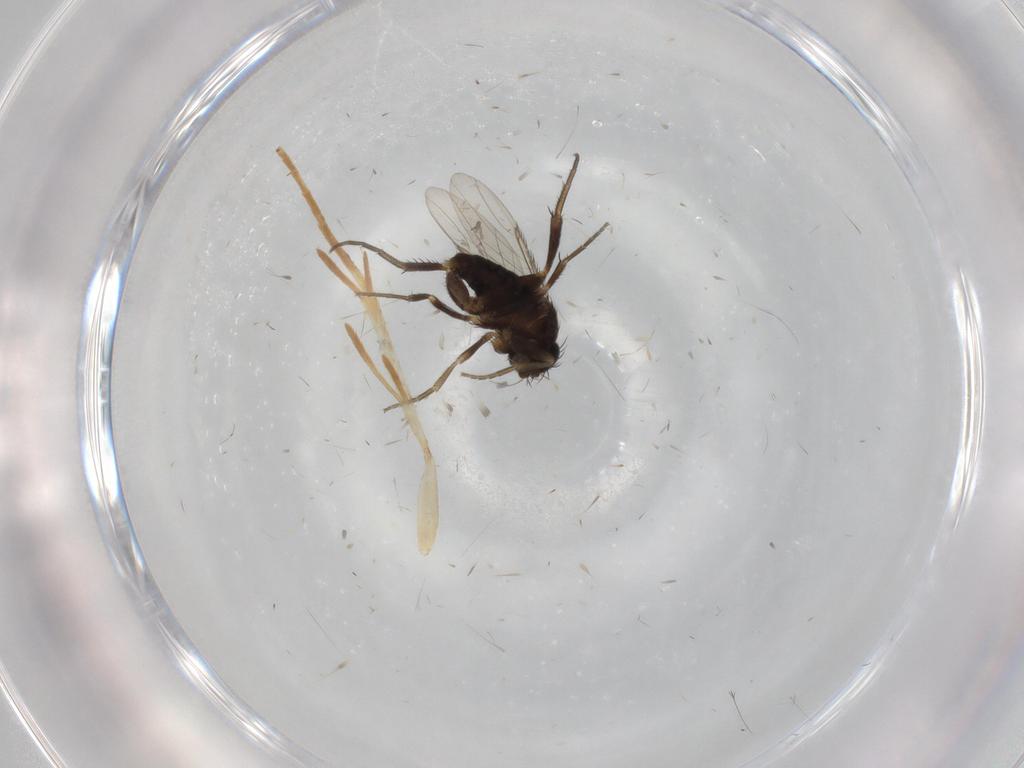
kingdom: Animalia
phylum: Arthropoda
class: Insecta
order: Diptera
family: Phoridae
